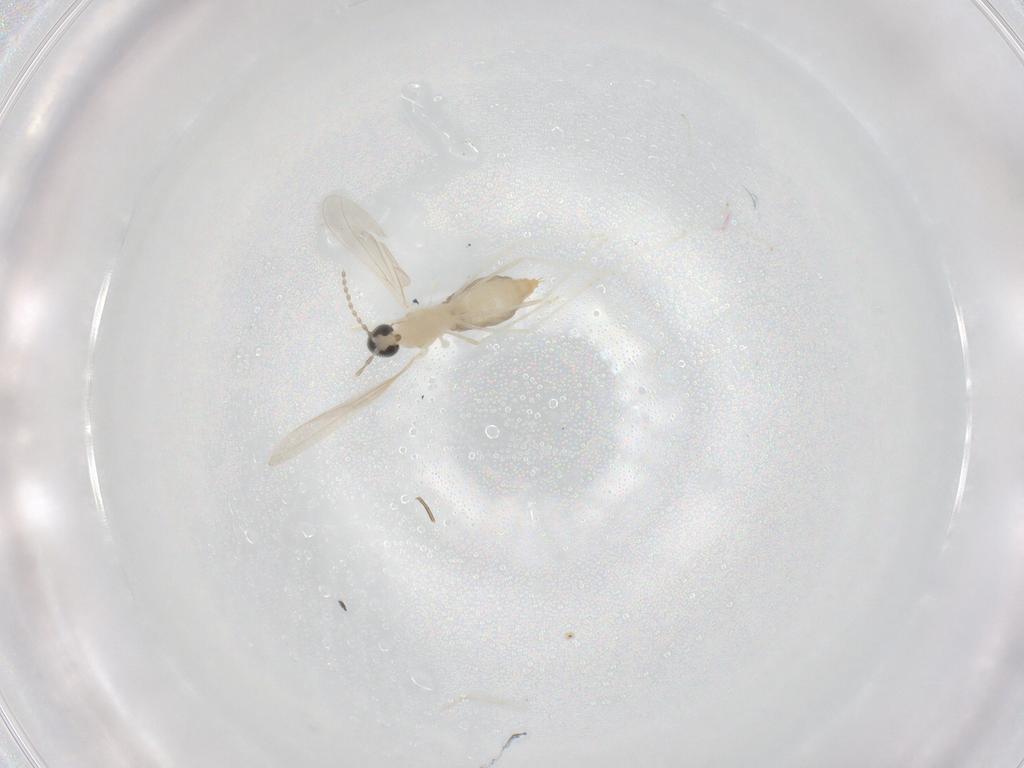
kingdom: Animalia
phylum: Arthropoda
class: Insecta
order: Diptera
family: Cecidomyiidae
